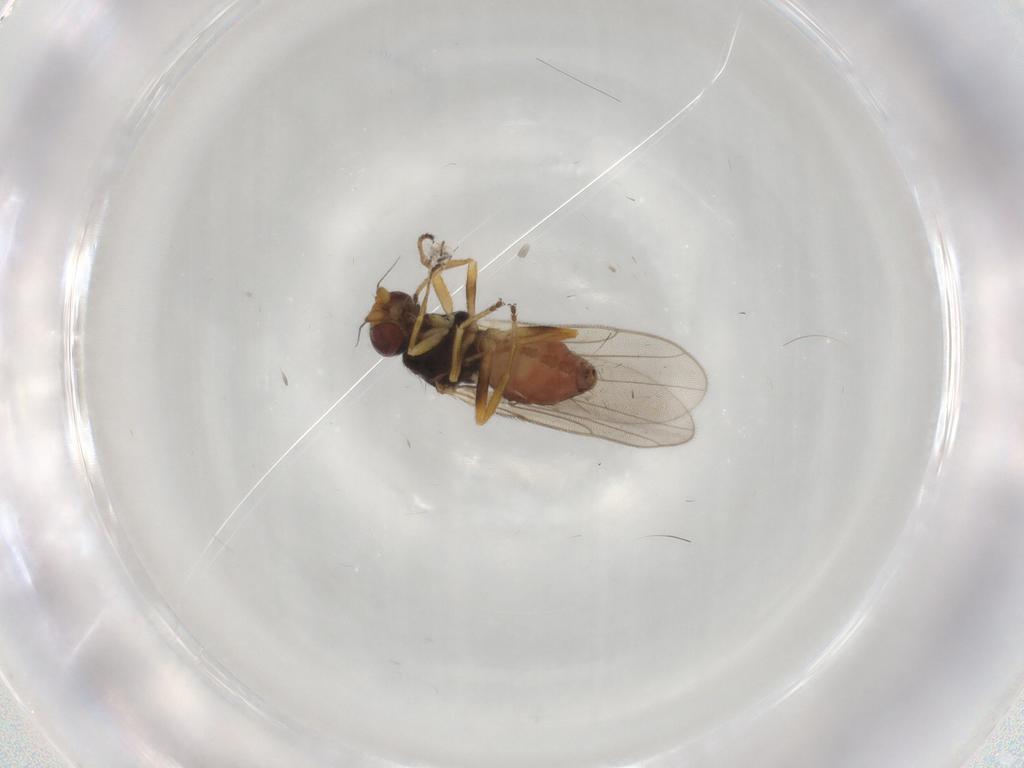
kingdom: Animalia
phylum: Arthropoda
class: Insecta
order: Diptera
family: Chloropidae
